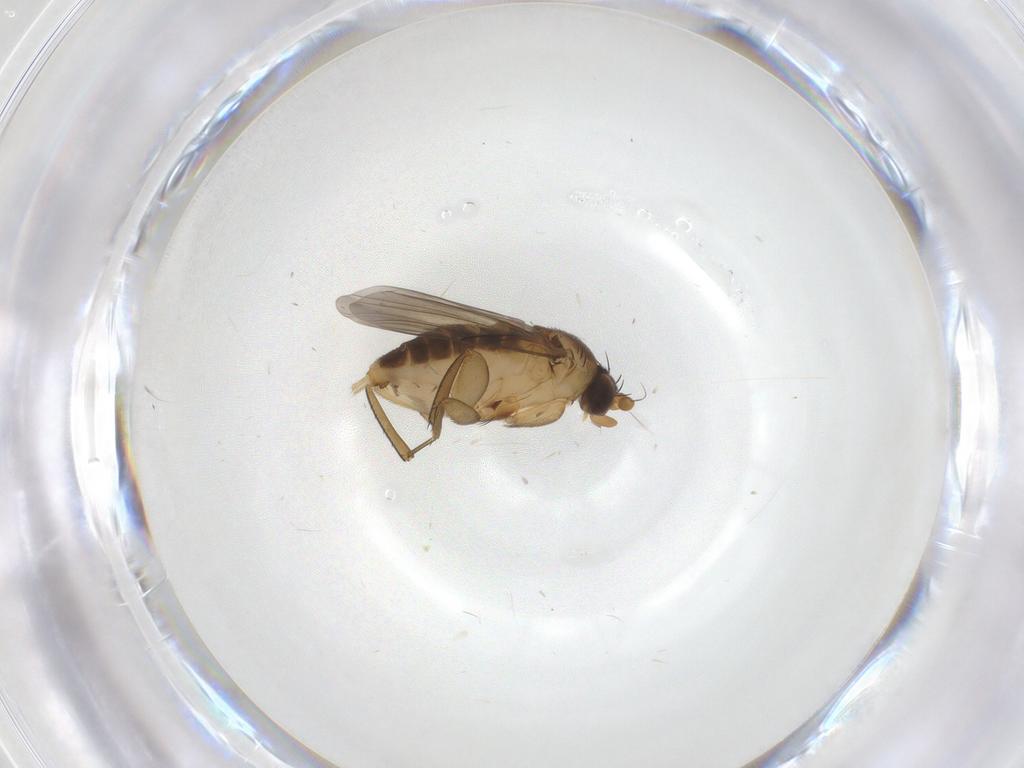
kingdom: Animalia
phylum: Arthropoda
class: Insecta
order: Diptera
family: Phoridae
